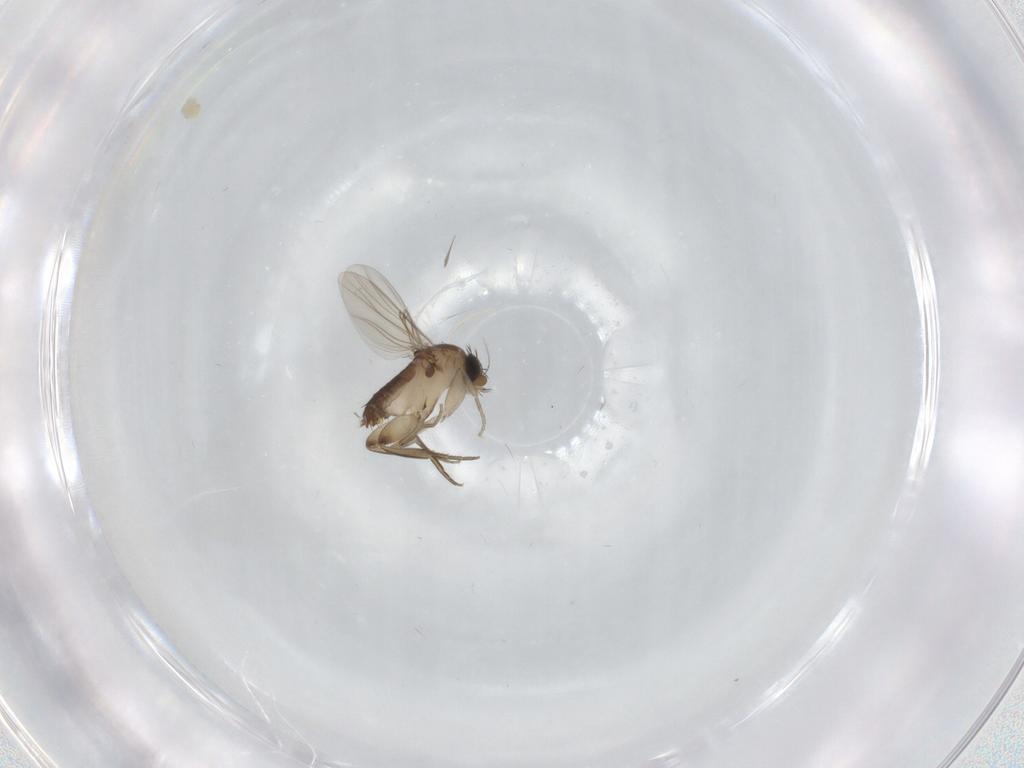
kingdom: Animalia
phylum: Arthropoda
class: Insecta
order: Diptera
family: Phoridae
